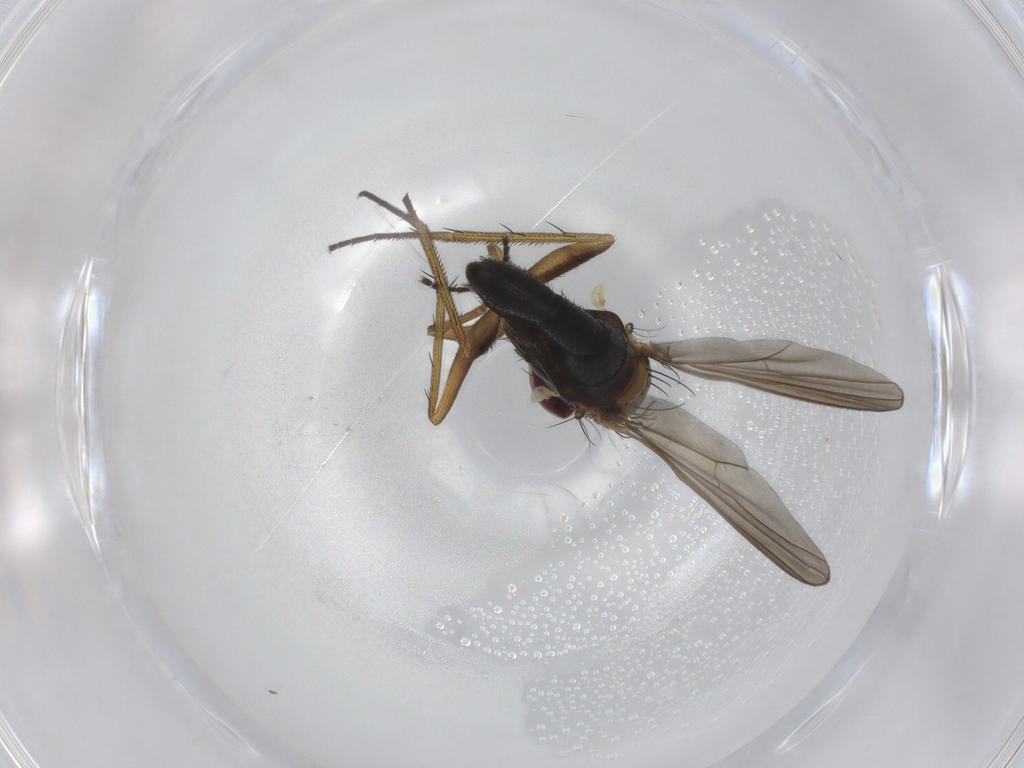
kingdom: Animalia
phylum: Arthropoda
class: Insecta
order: Diptera
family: Dolichopodidae
